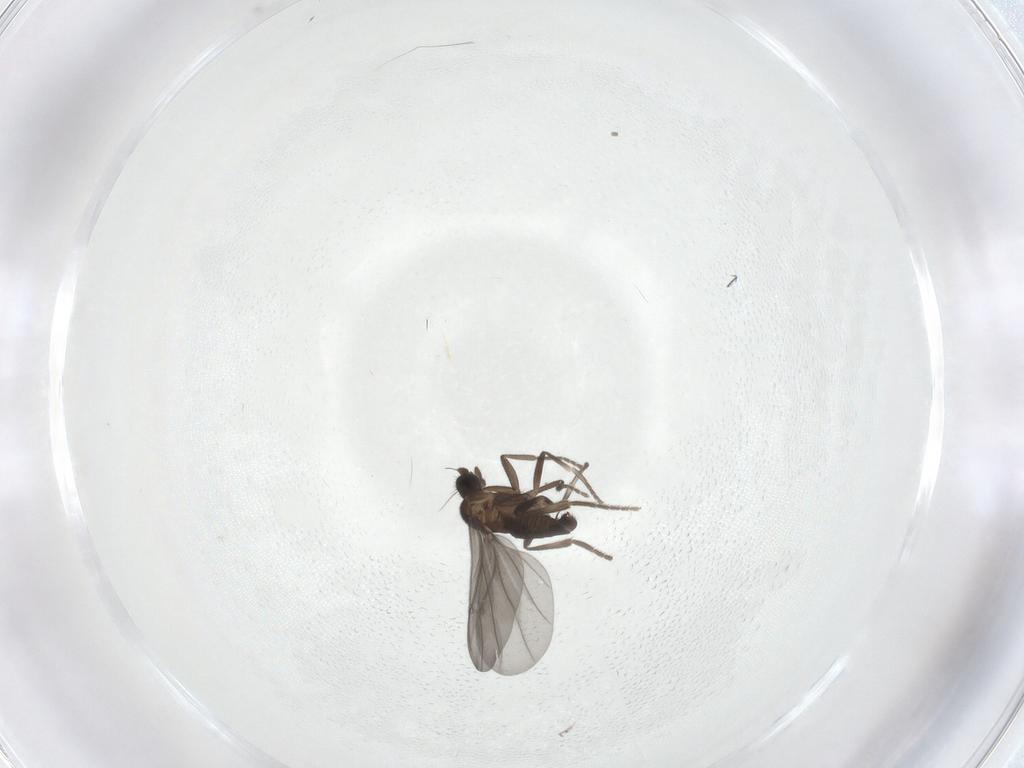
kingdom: Animalia
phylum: Arthropoda
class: Insecta
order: Diptera
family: Phoridae
